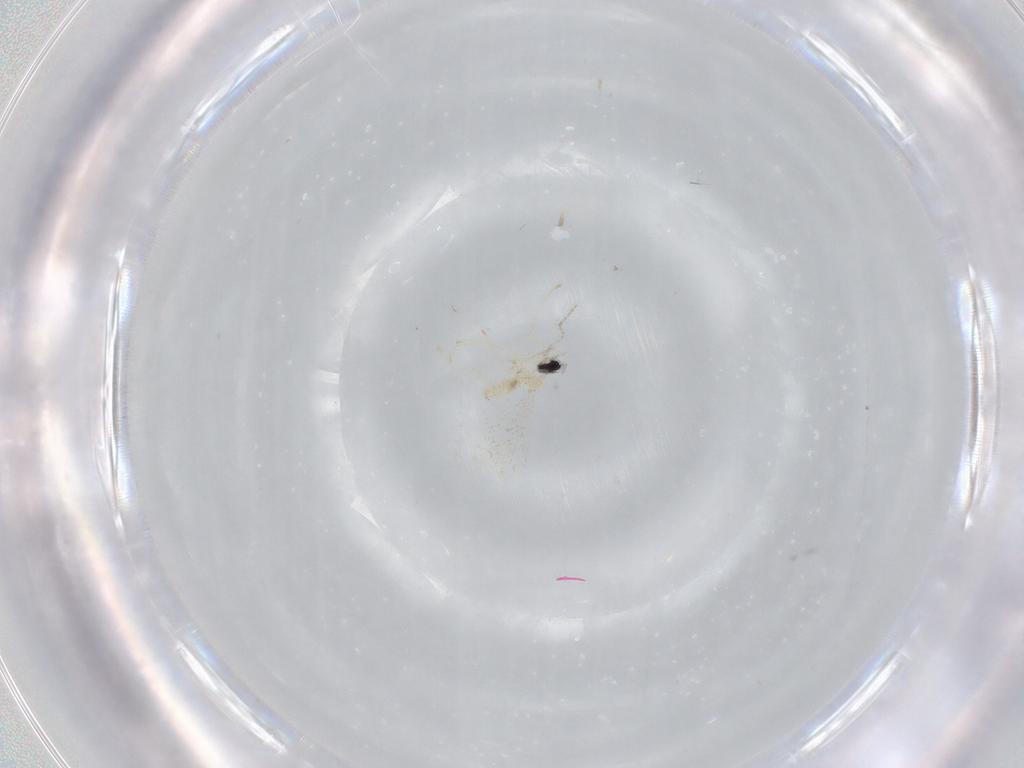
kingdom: Animalia
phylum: Arthropoda
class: Insecta
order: Diptera
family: Cecidomyiidae
